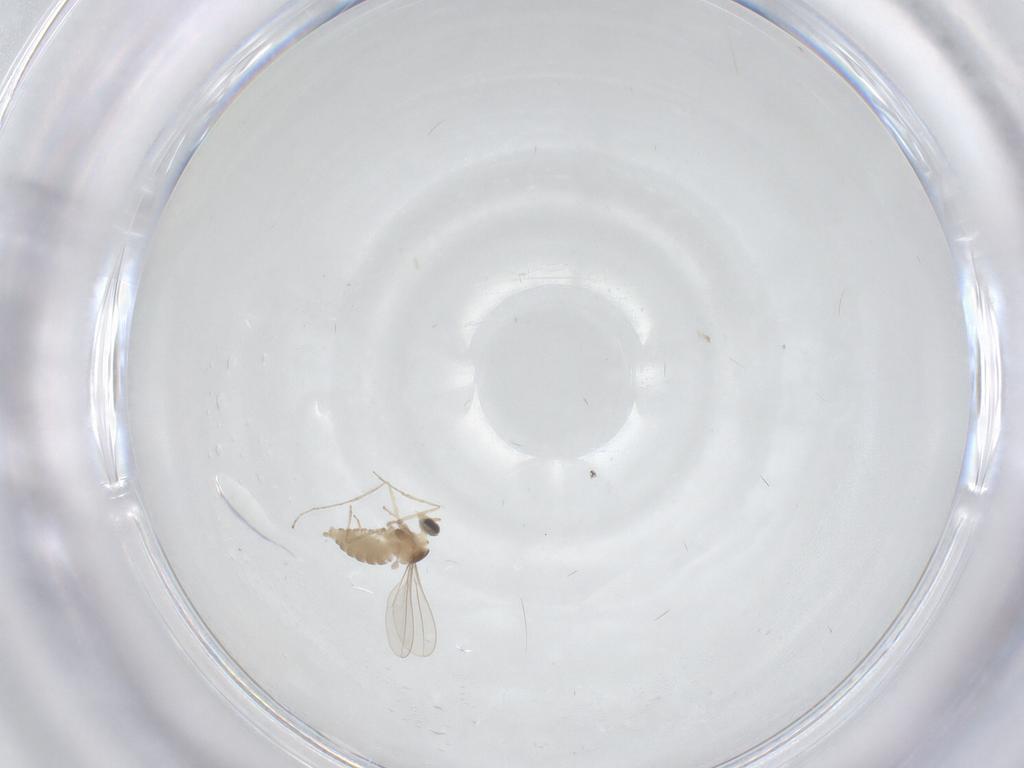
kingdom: Animalia
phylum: Arthropoda
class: Insecta
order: Diptera
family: Cecidomyiidae
